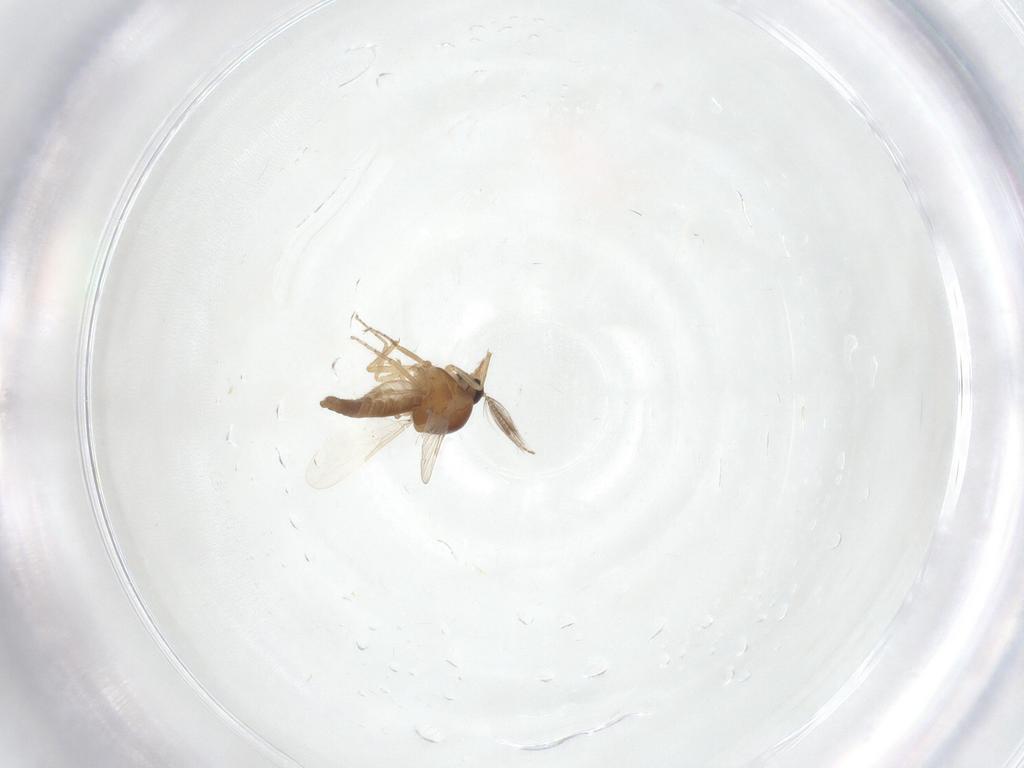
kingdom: Animalia
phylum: Arthropoda
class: Insecta
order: Diptera
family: Ceratopogonidae
